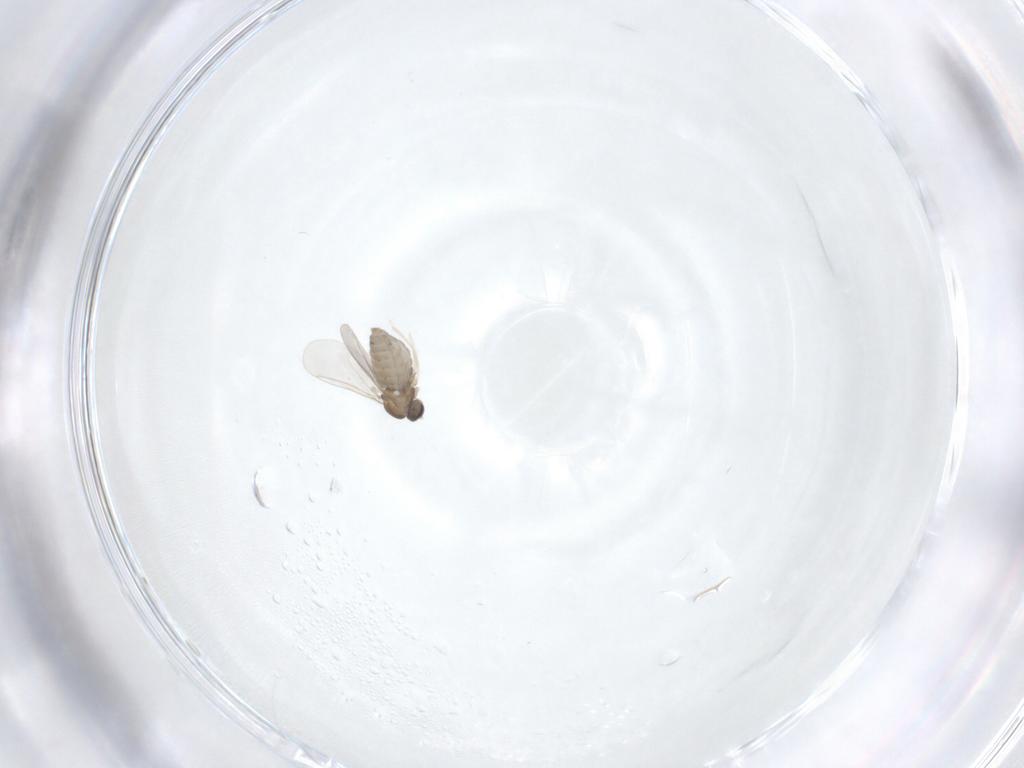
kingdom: Animalia
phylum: Arthropoda
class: Insecta
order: Diptera
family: Cecidomyiidae
